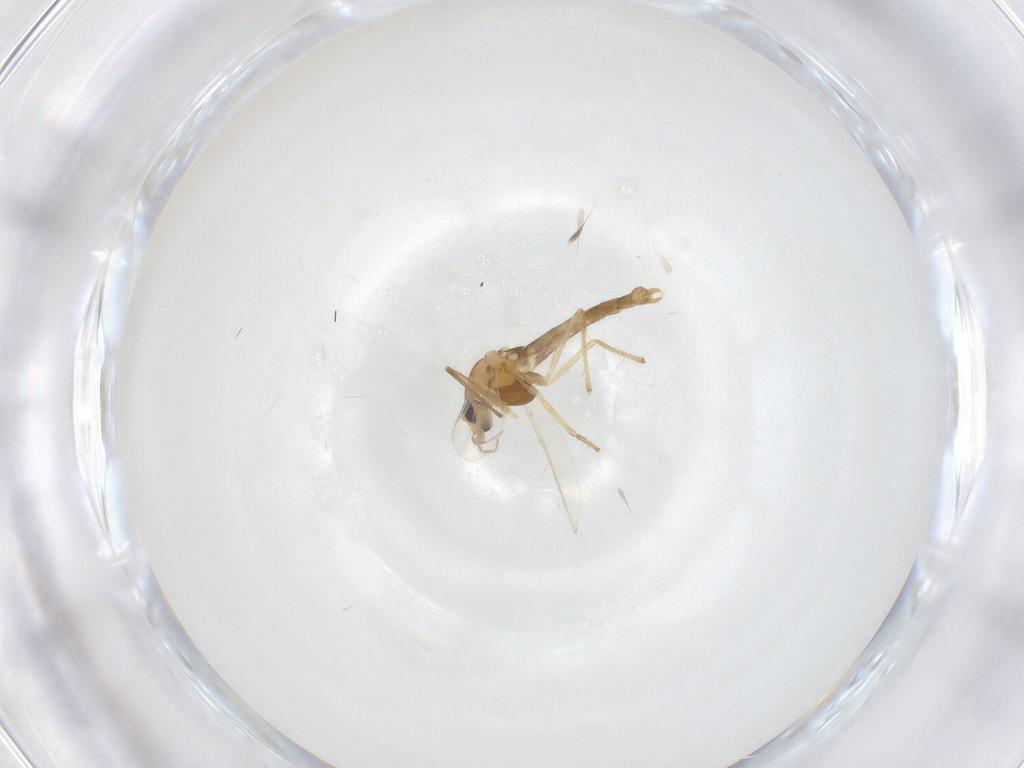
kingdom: Animalia
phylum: Arthropoda
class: Insecta
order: Diptera
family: Chironomidae
